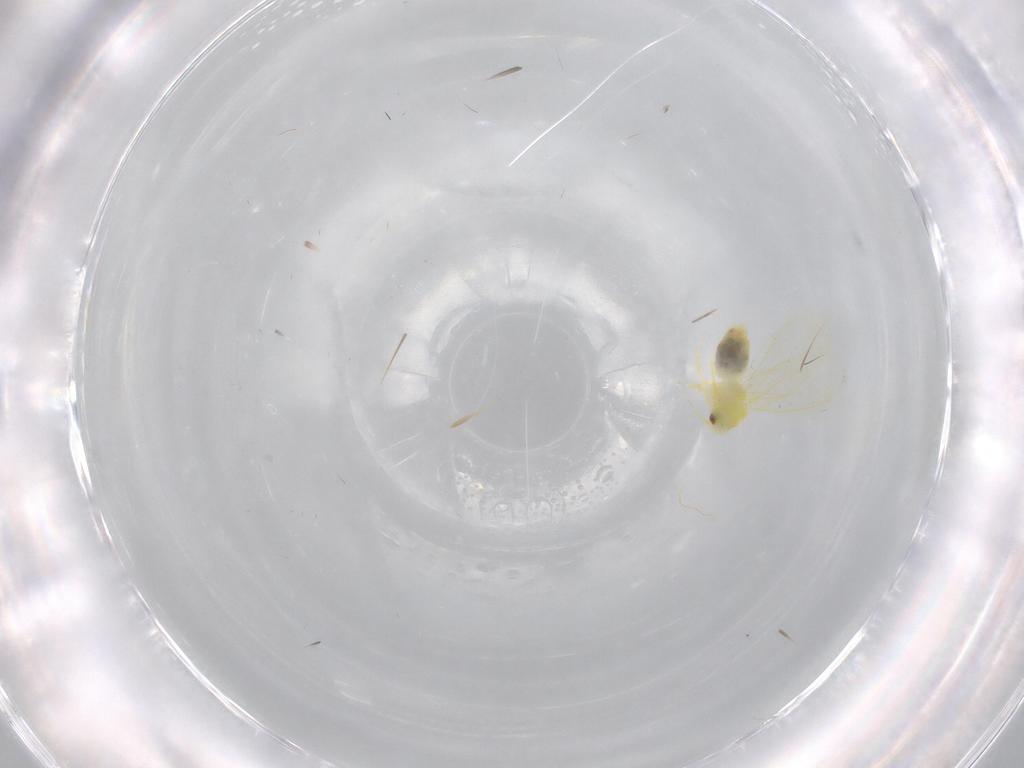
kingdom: Animalia
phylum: Arthropoda
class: Insecta
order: Hemiptera
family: Aleyrodidae
